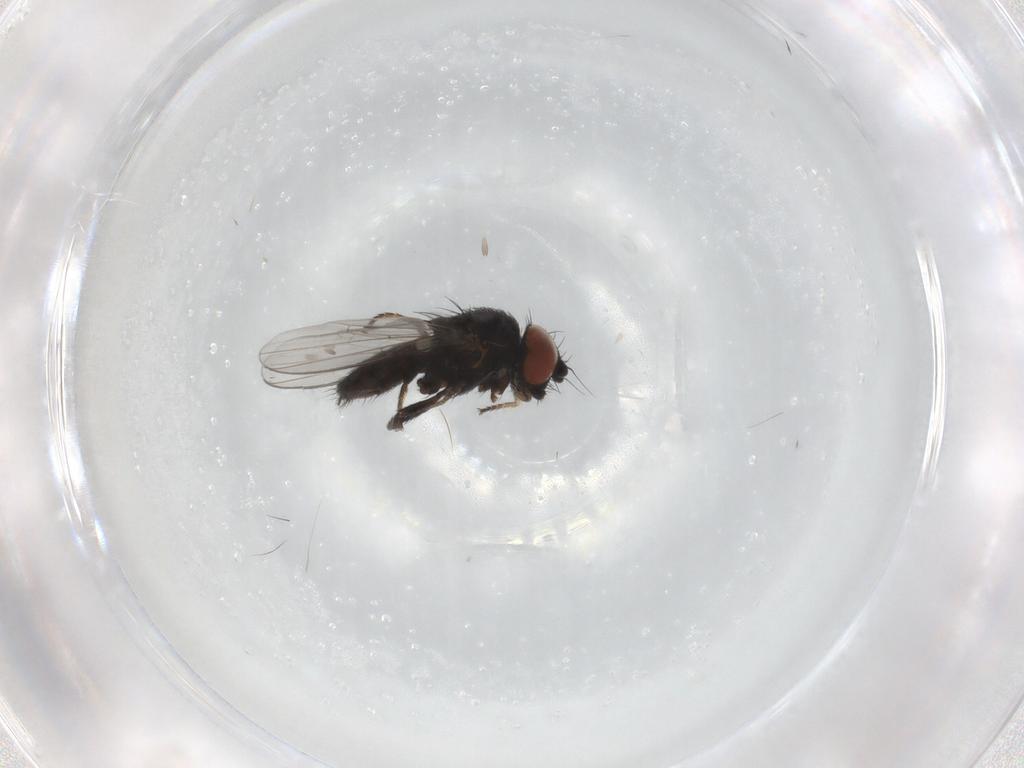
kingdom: Animalia
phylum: Arthropoda
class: Insecta
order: Diptera
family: Milichiidae
